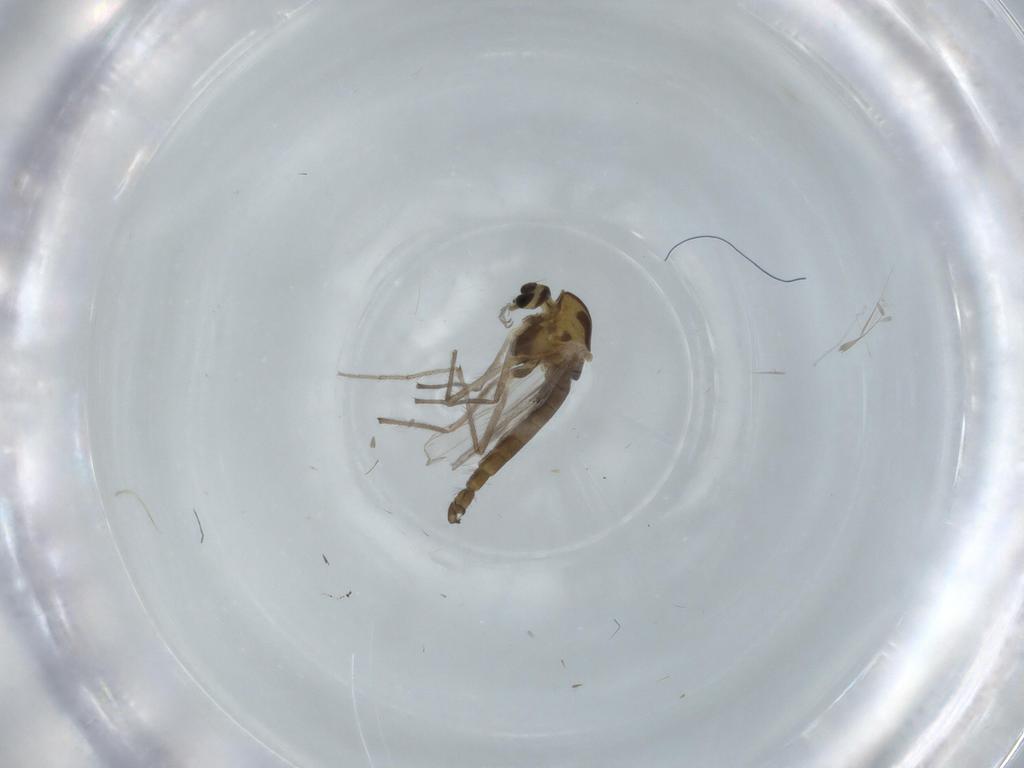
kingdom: Animalia
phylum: Arthropoda
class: Insecta
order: Diptera
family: Chironomidae
